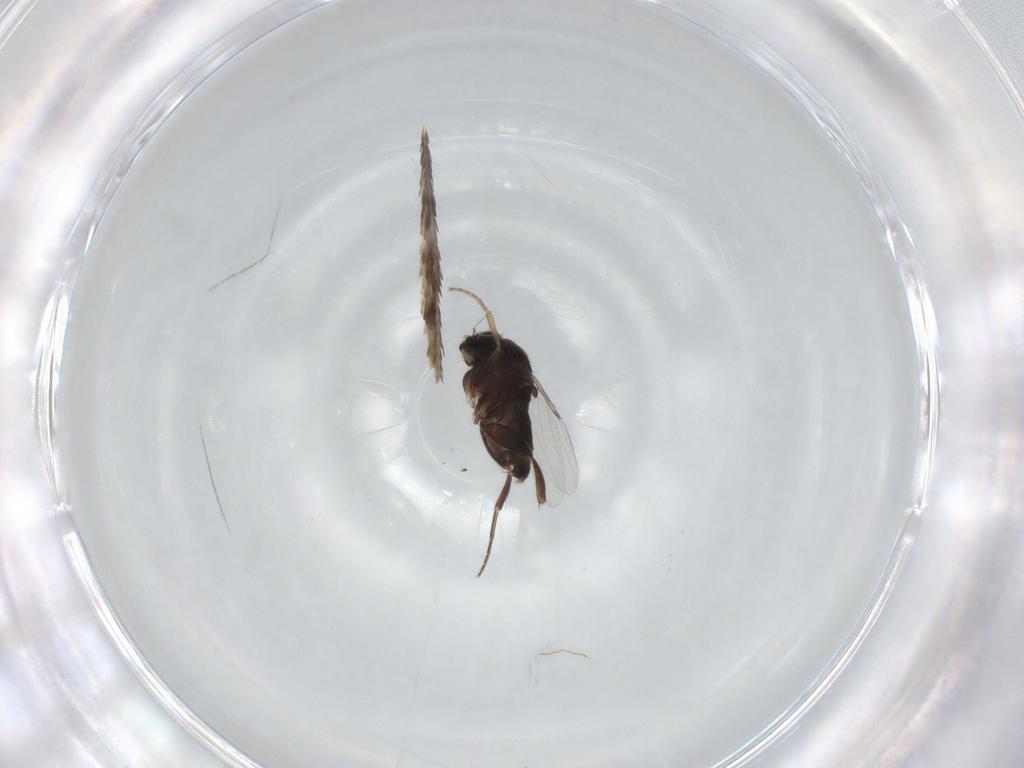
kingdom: Animalia
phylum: Arthropoda
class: Insecta
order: Diptera
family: Phoridae
